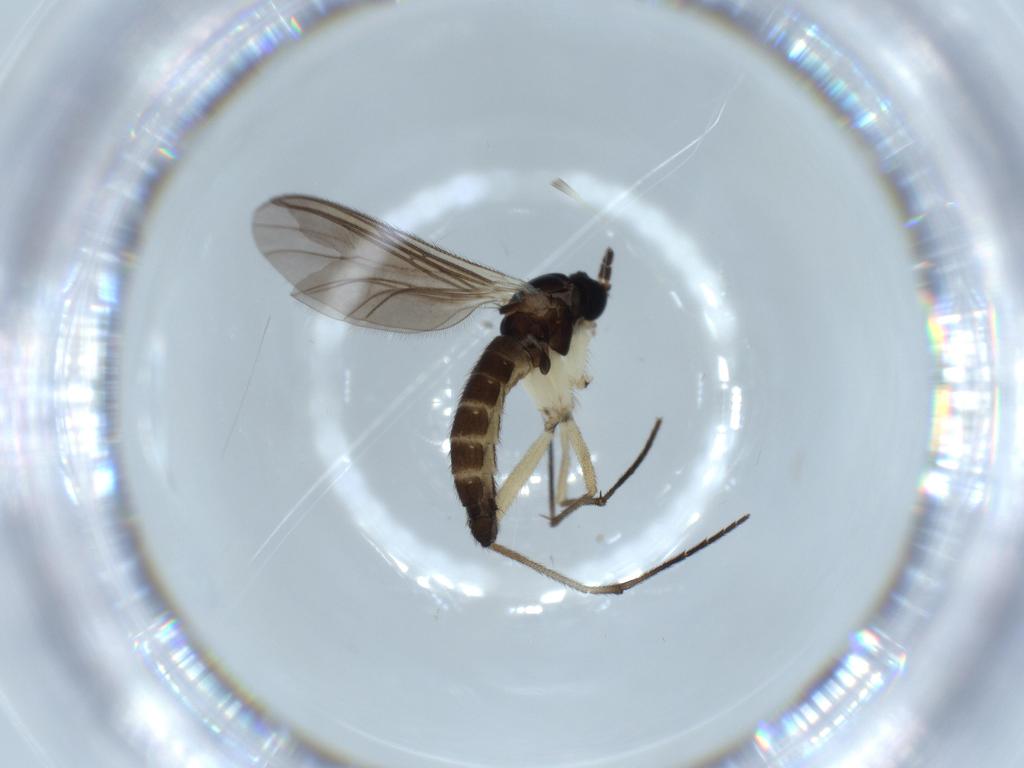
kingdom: Animalia
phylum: Arthropoda
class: Insecta
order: Diptera
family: Sciaridae
